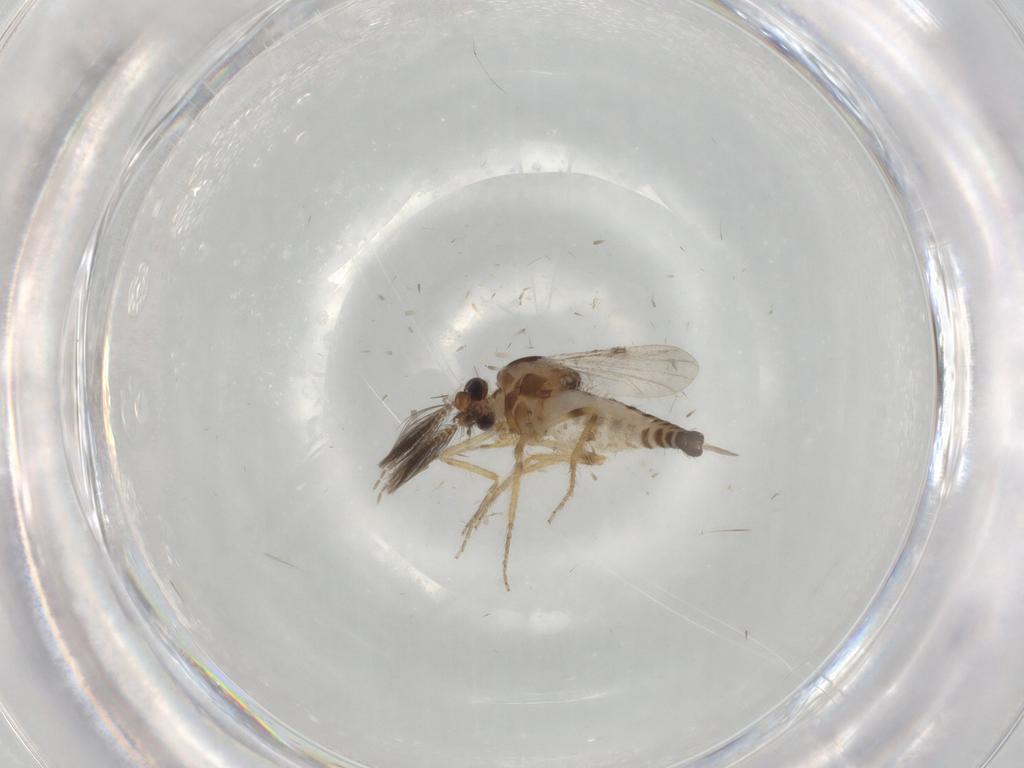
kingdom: Animalia
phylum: Arthropoda
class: Insecta
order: Diptera
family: Ceratopogonidae
